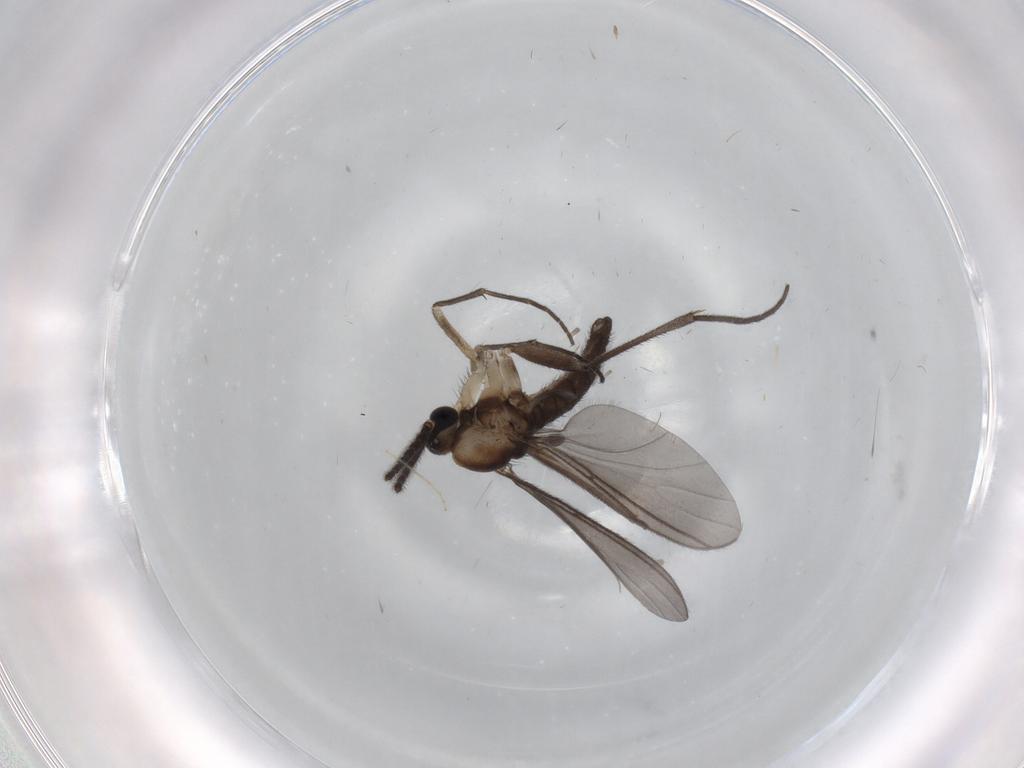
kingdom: Animalia
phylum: Arthropoda
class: Insecta
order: Diptera
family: Sciaridae
